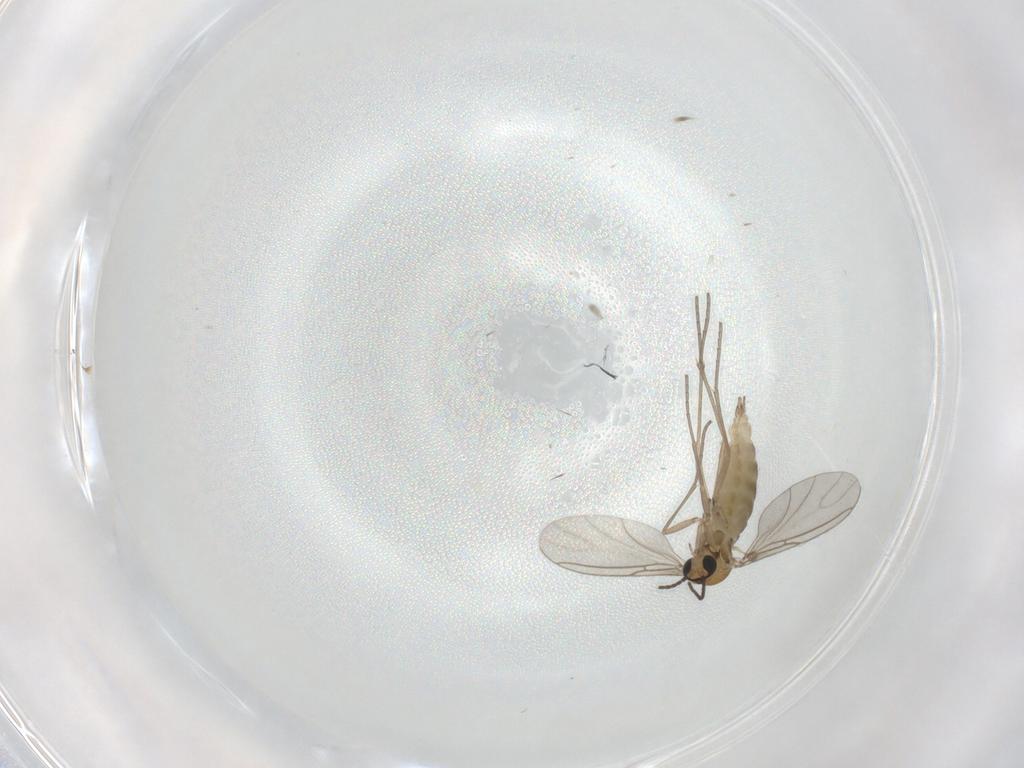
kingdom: Animalia
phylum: Arthropoda
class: Insecta
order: Diptera
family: Sciaridae
